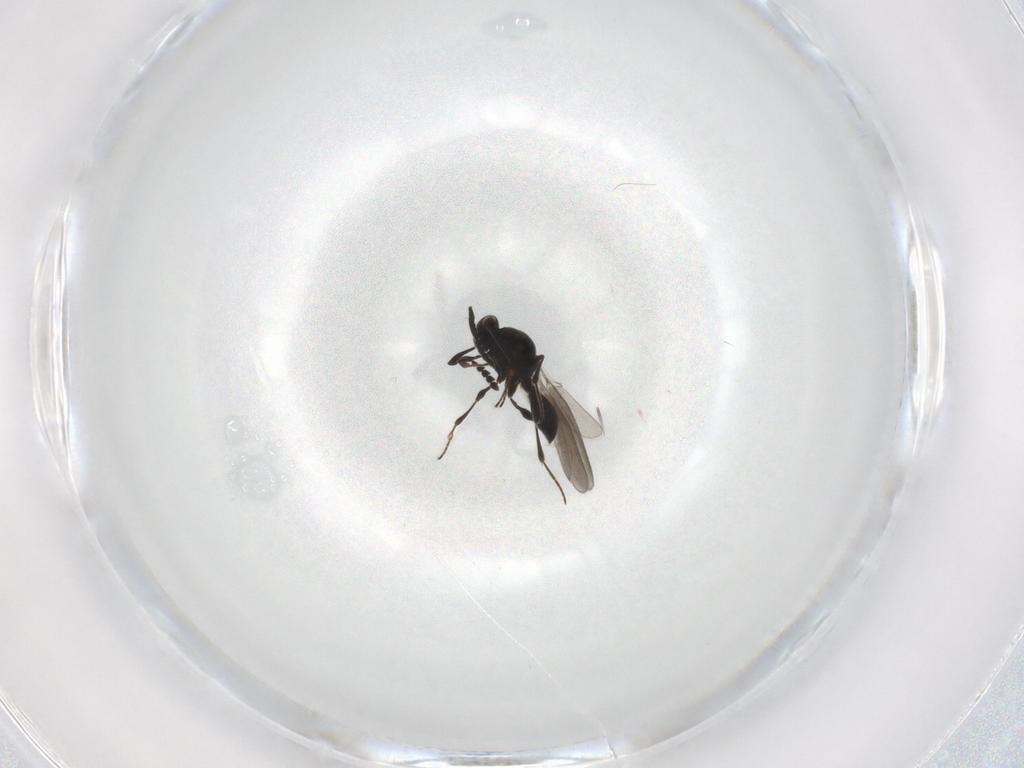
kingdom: Animalia
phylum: Arthropoda
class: Insecta
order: Hymenoptera
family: Platygastridae
